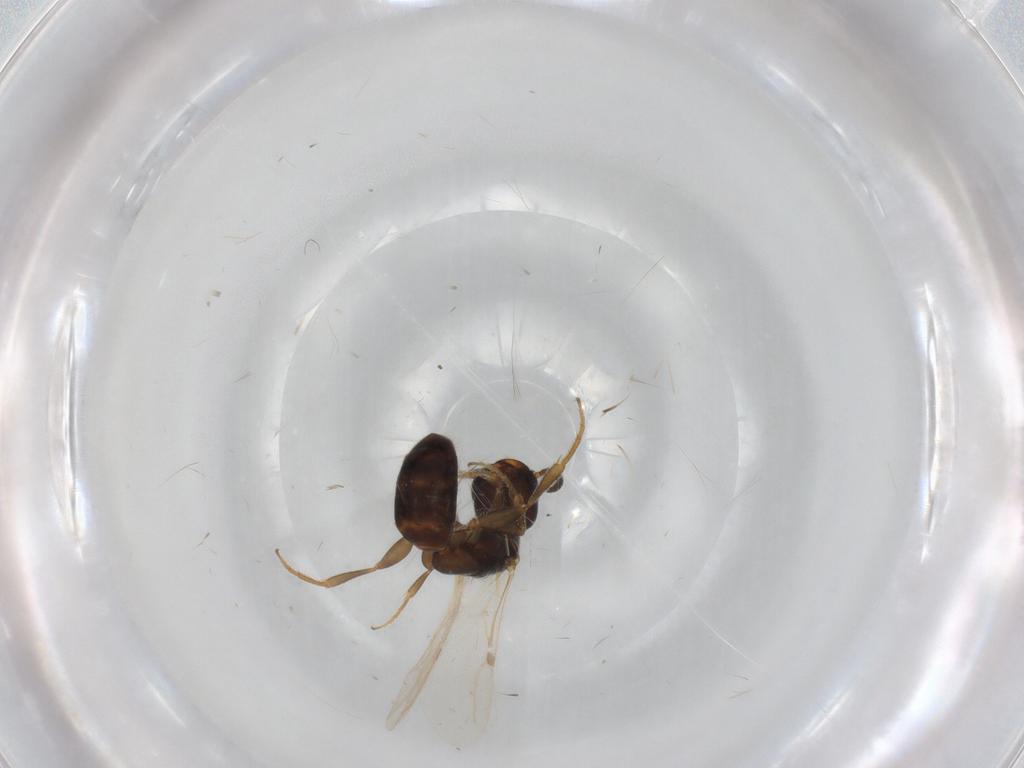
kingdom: Animalia
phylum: Arthropoda
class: Insecta
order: Hymenoptera
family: Bethylidae
